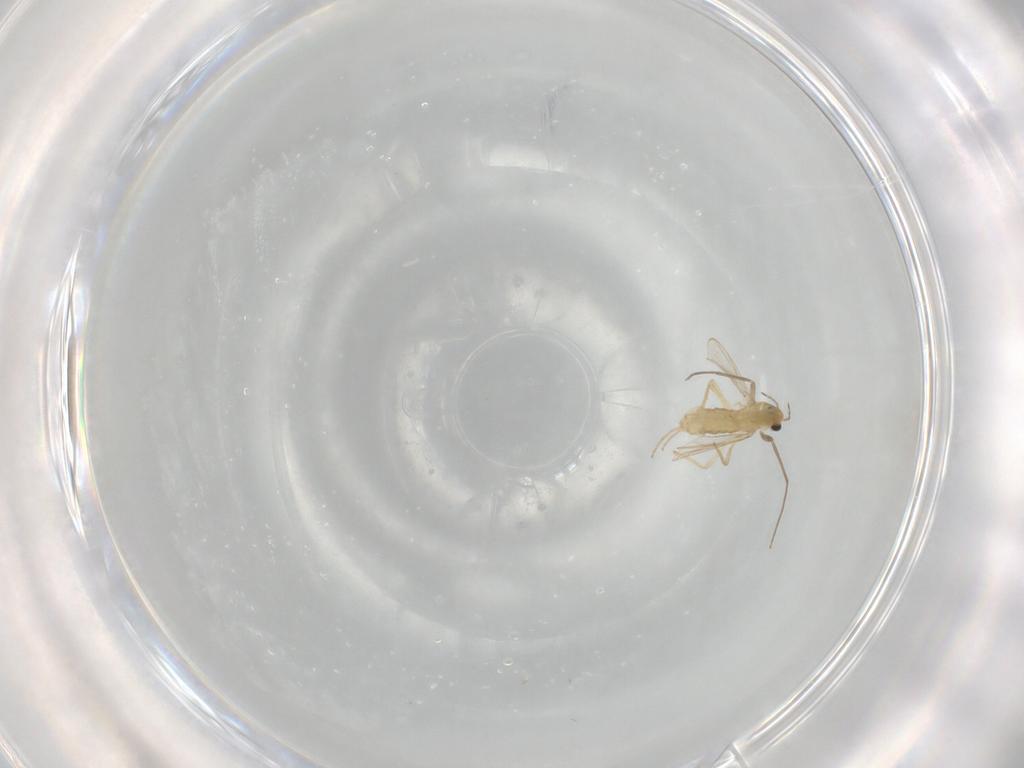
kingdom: Animalia
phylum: Arthropoda
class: Insecta
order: Diptera
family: Chironomidae
